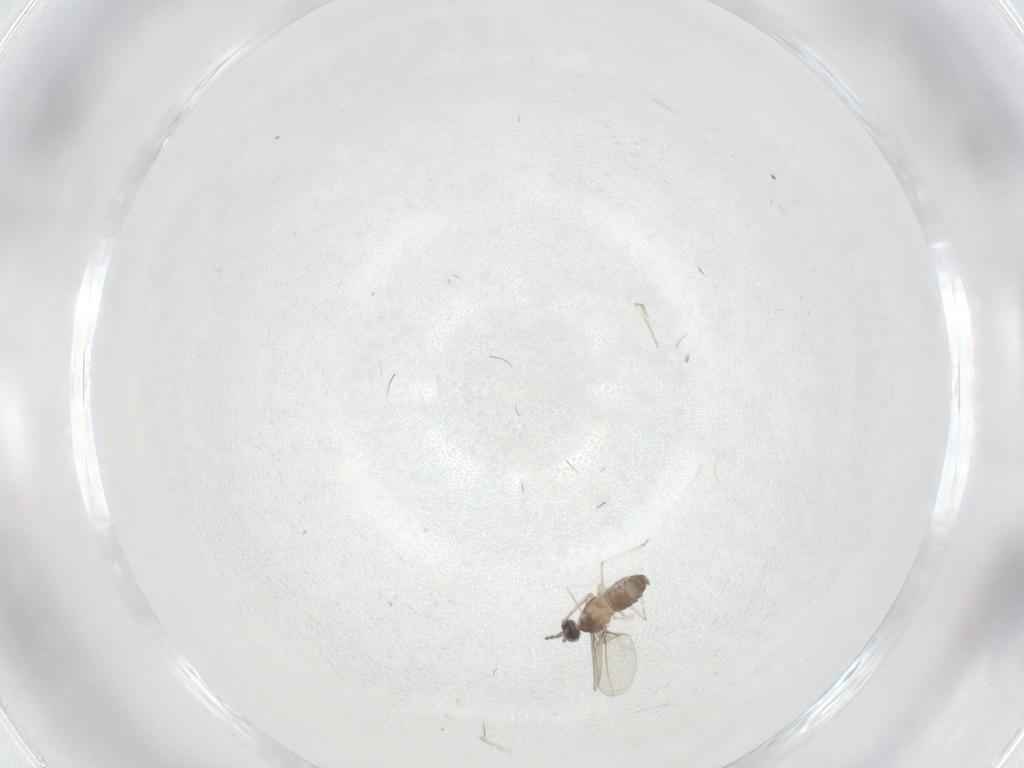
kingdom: Animalia
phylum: Arthropoda
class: Insecta
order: Diptera
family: Cecidomyiidae
